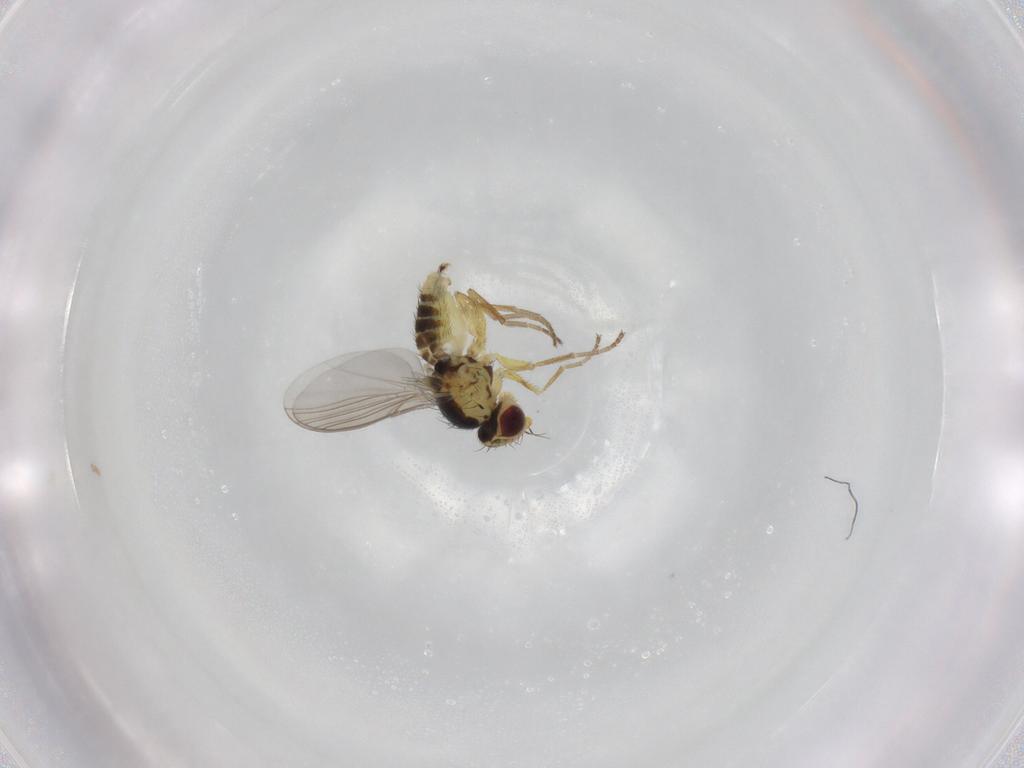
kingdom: Animalia
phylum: Arthropoda
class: Insecta
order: Diptera
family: Agromyzidae
